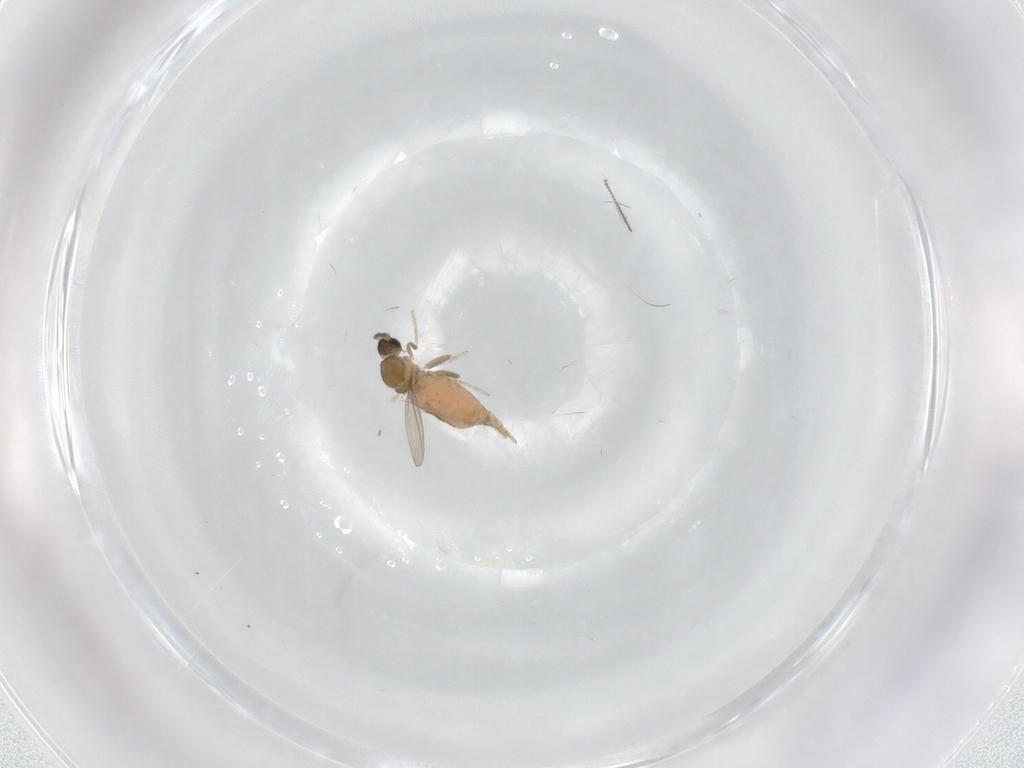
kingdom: Animalia
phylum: Arthropoda
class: Insecta
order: Diptera
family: Cecidomyiidae
